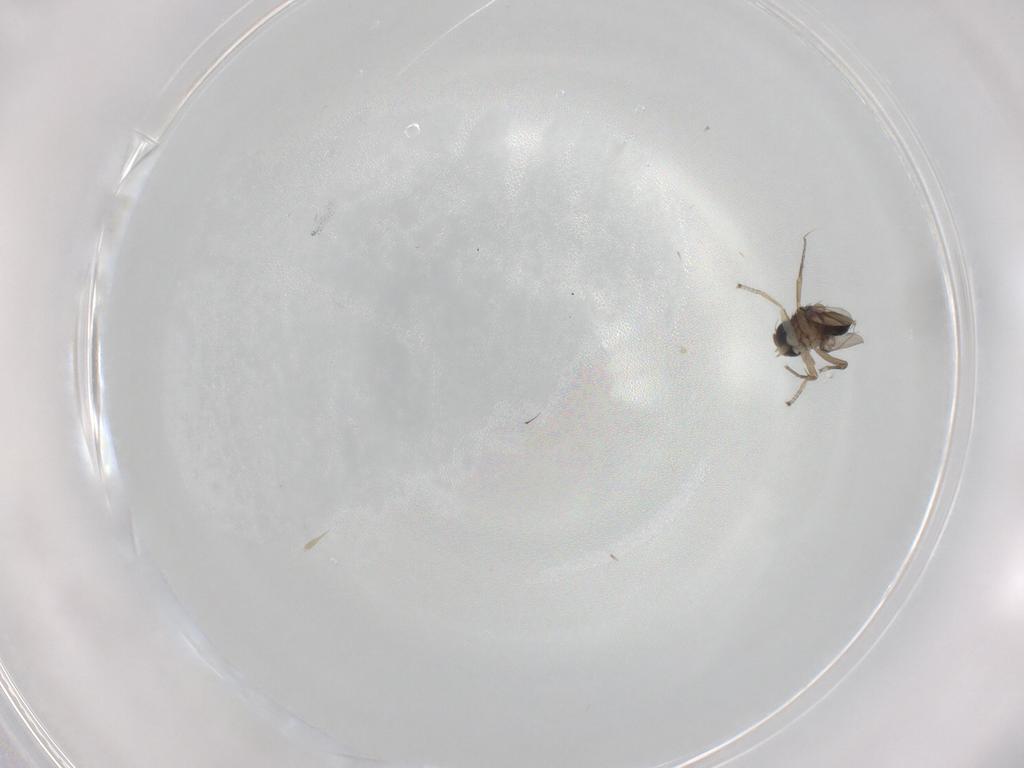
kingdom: Animalia
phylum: Arthropoda
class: Insecta
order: Diptera
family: Phoridae
